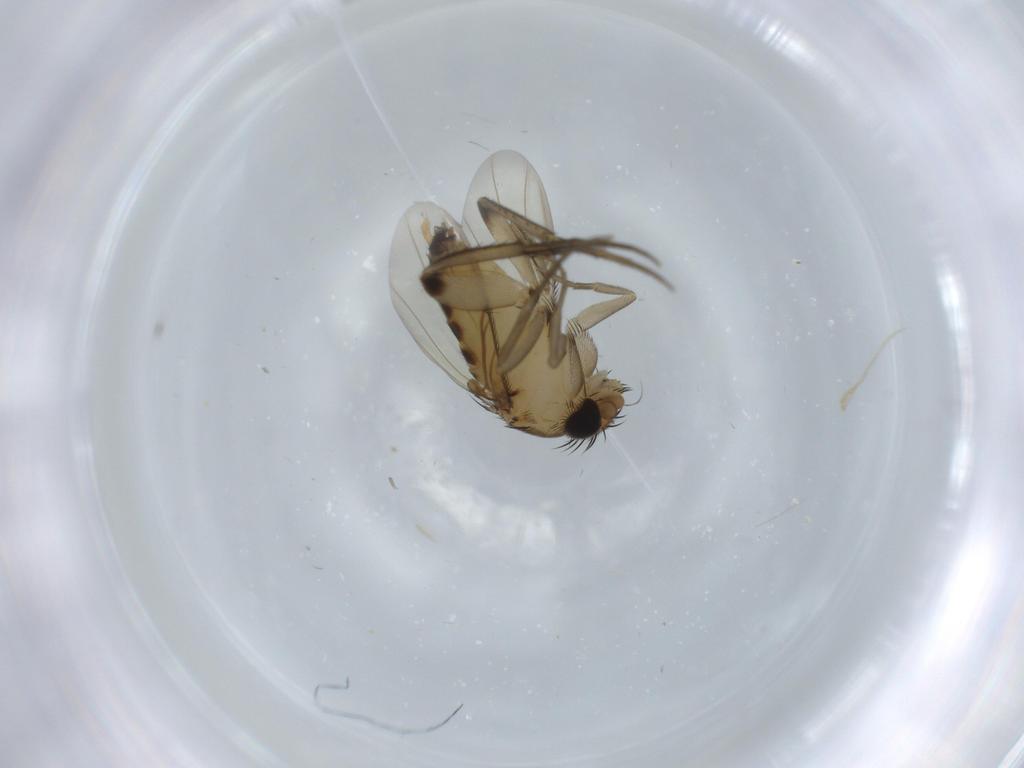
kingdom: Animalia
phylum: Arthropoda
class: Insecta
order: Diptera
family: Phoridae
